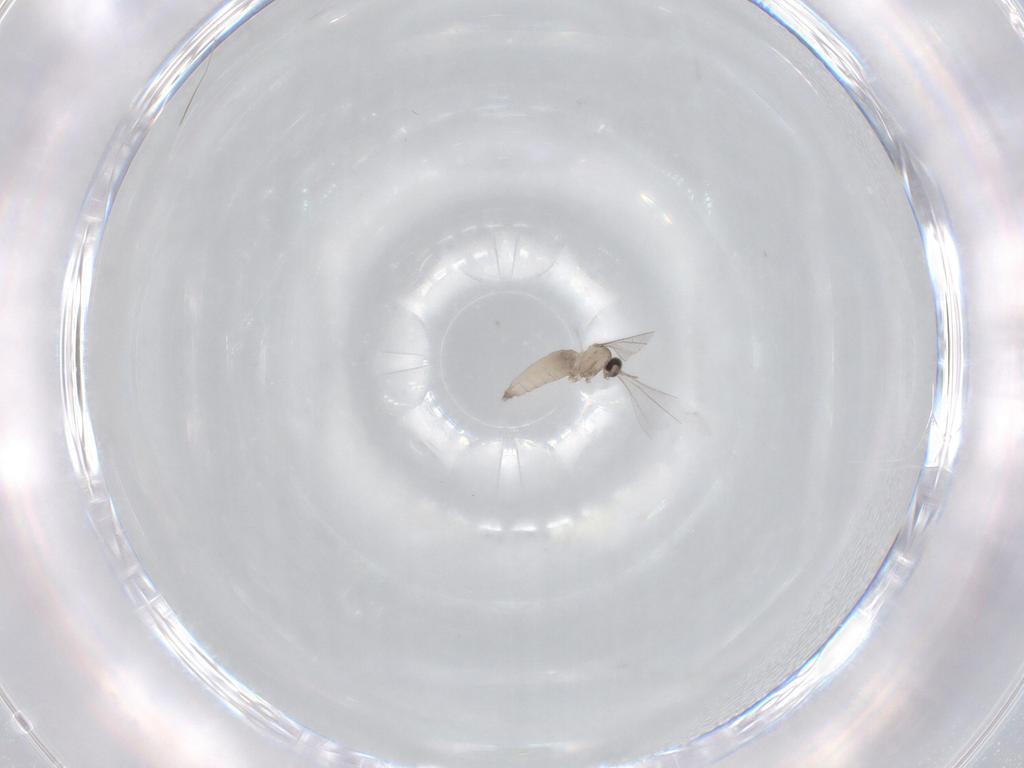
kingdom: Animalia
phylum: Arthropoda
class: Insecta
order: Diptera
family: Cecidomyiidae
